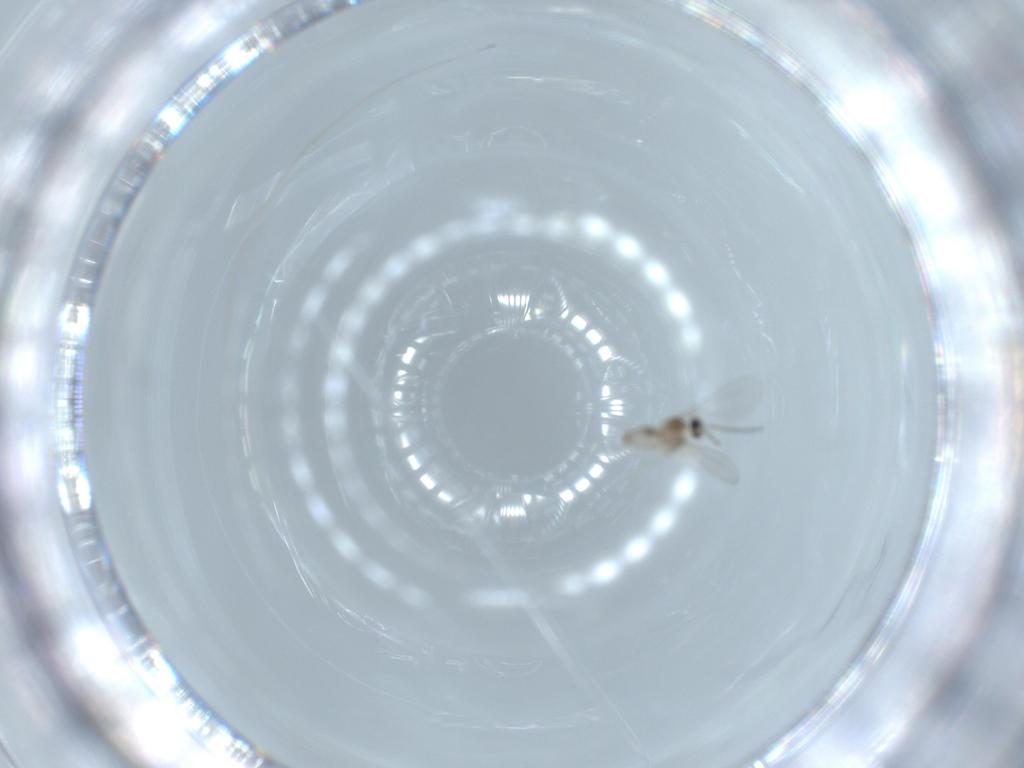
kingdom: Animalia
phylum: Arthropoda
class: Insecta
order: Diptera
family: Cecidomyiidae
